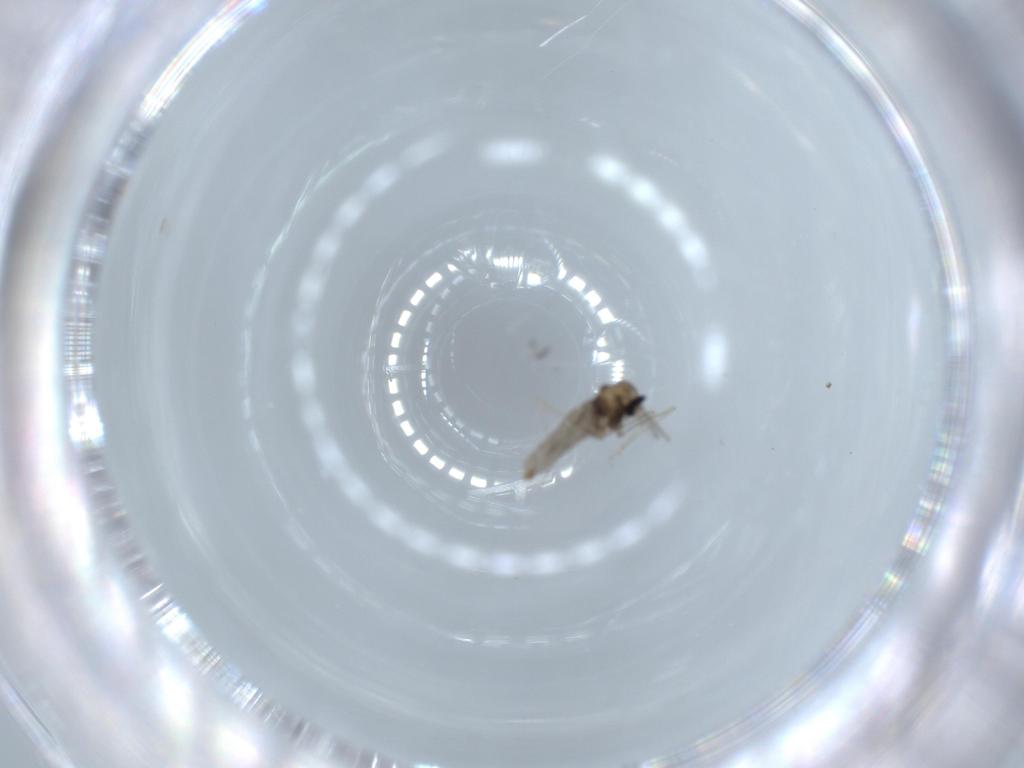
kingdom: Animalia
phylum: Arthropoda
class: Insecta
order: Diptera
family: Cecidomyiidae
